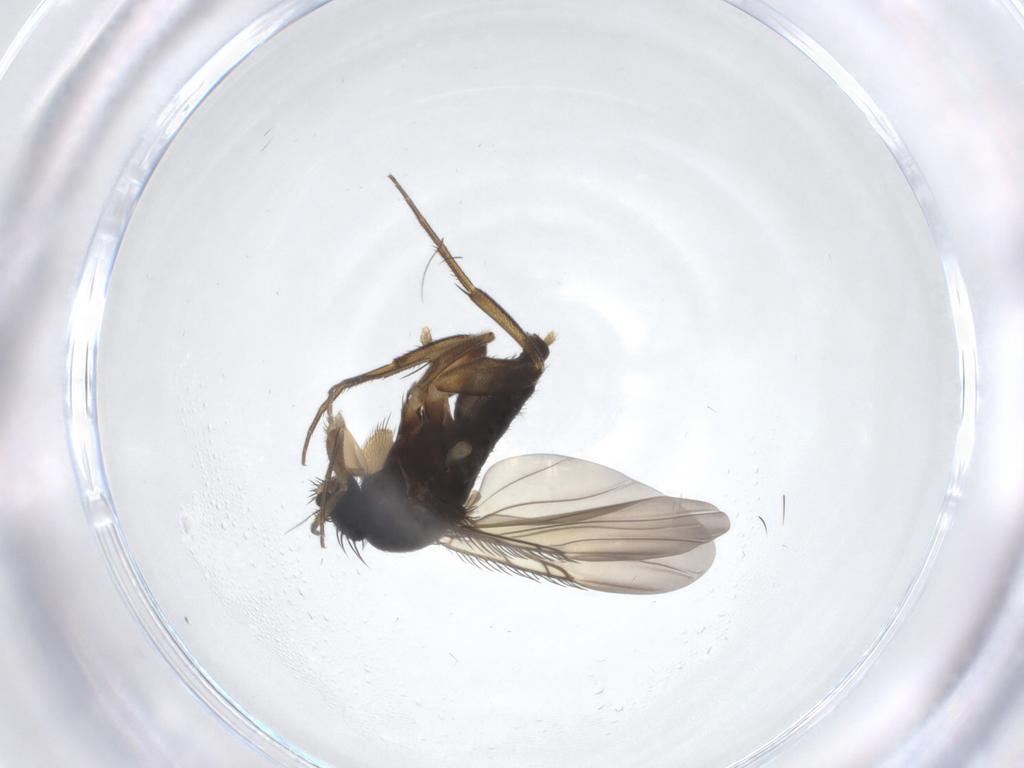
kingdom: Animalia
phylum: Arthropoda
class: Insecta
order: Diptera
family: Phoridae
